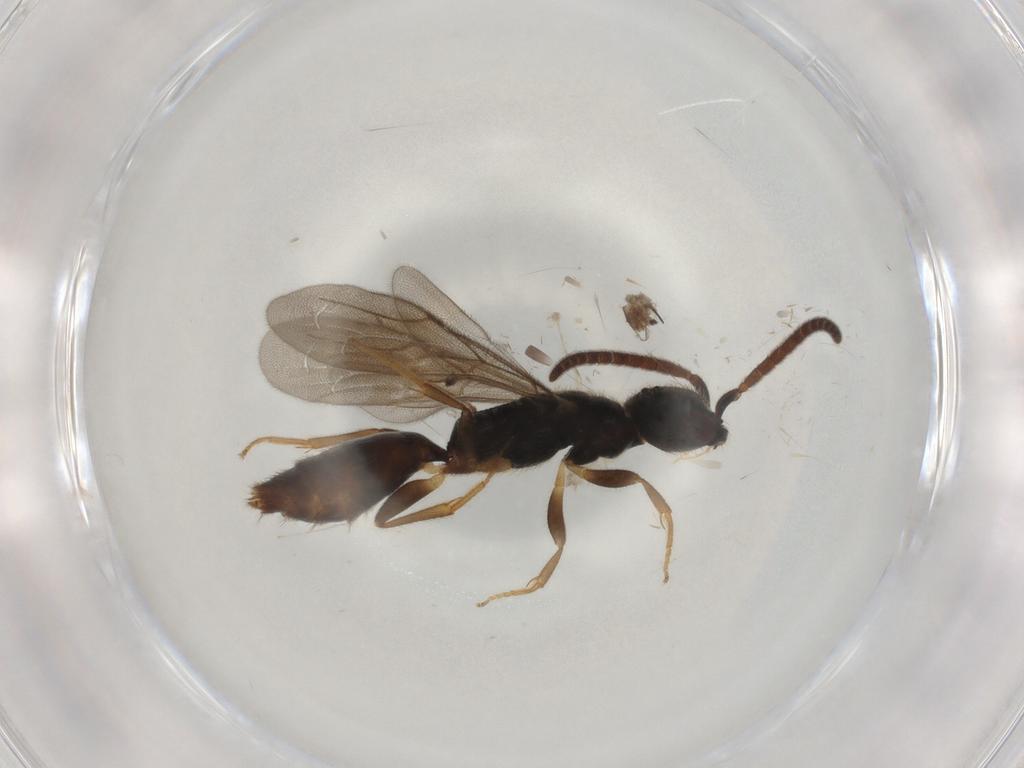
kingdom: Animalia
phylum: Arthropoda
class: Insecta
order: Hymenoptera
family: Bethylidae
